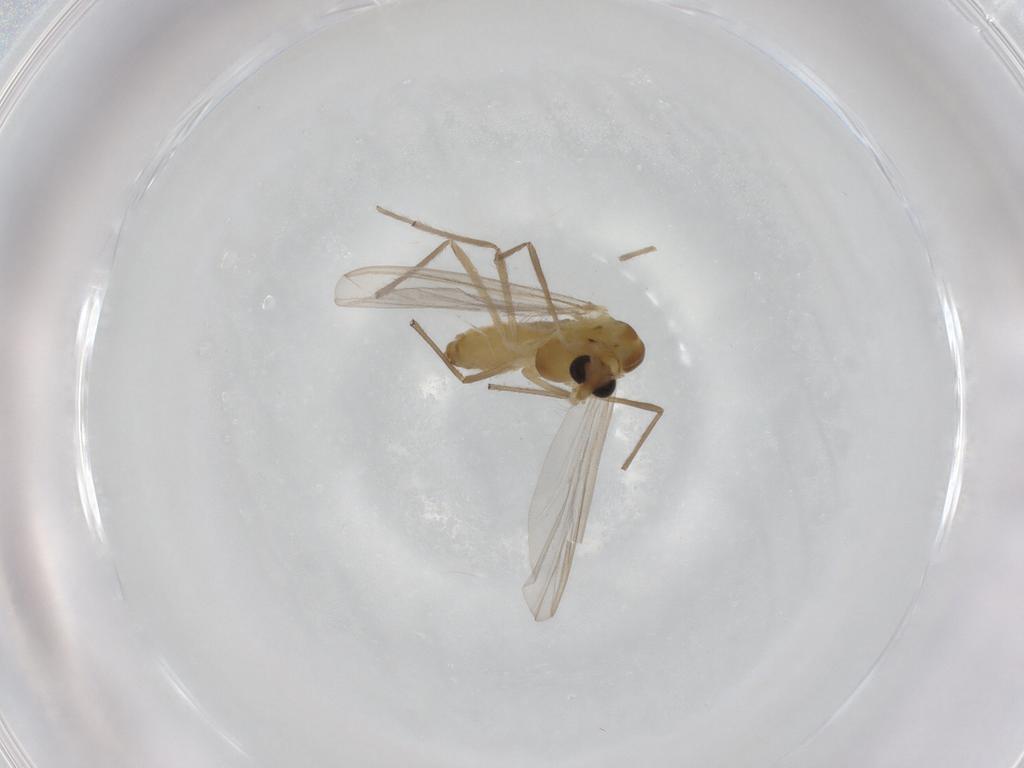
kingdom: Animalia
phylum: Arthropoda
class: Insecta
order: Diptera
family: Chironomidae
